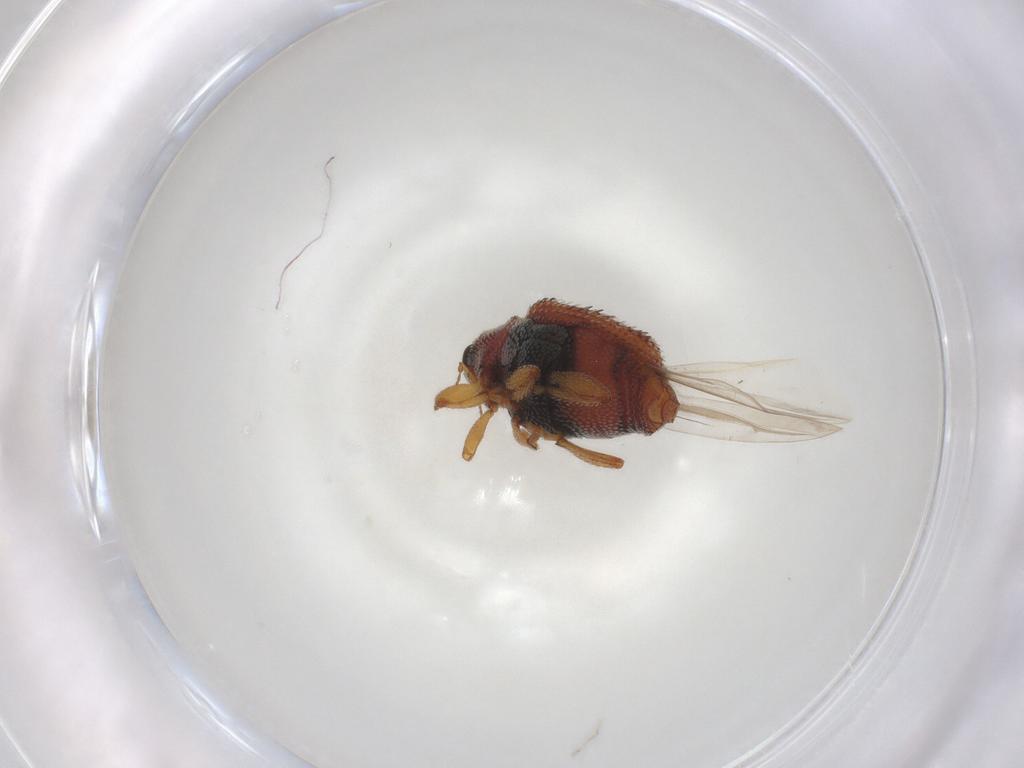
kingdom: Animalia
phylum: Arthropoda
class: Insecta
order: Coleoptera
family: Curculionidae
